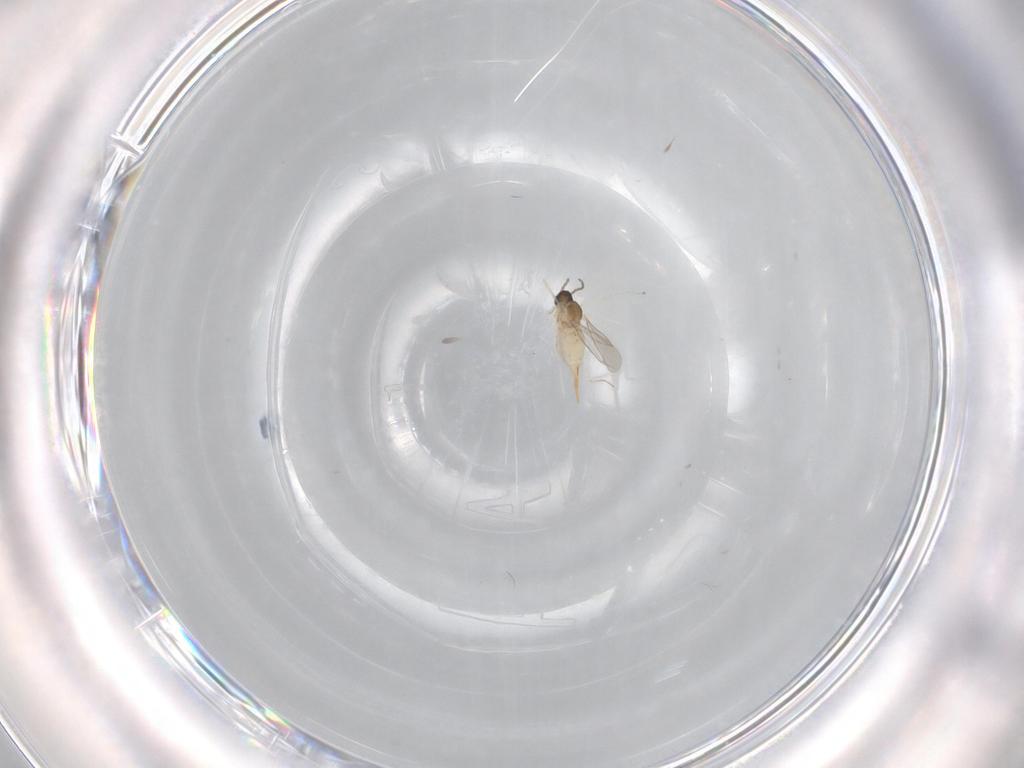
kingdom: Animalia
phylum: Arthropoda
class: Insecta
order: Diptera
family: Cecidomyiidae
